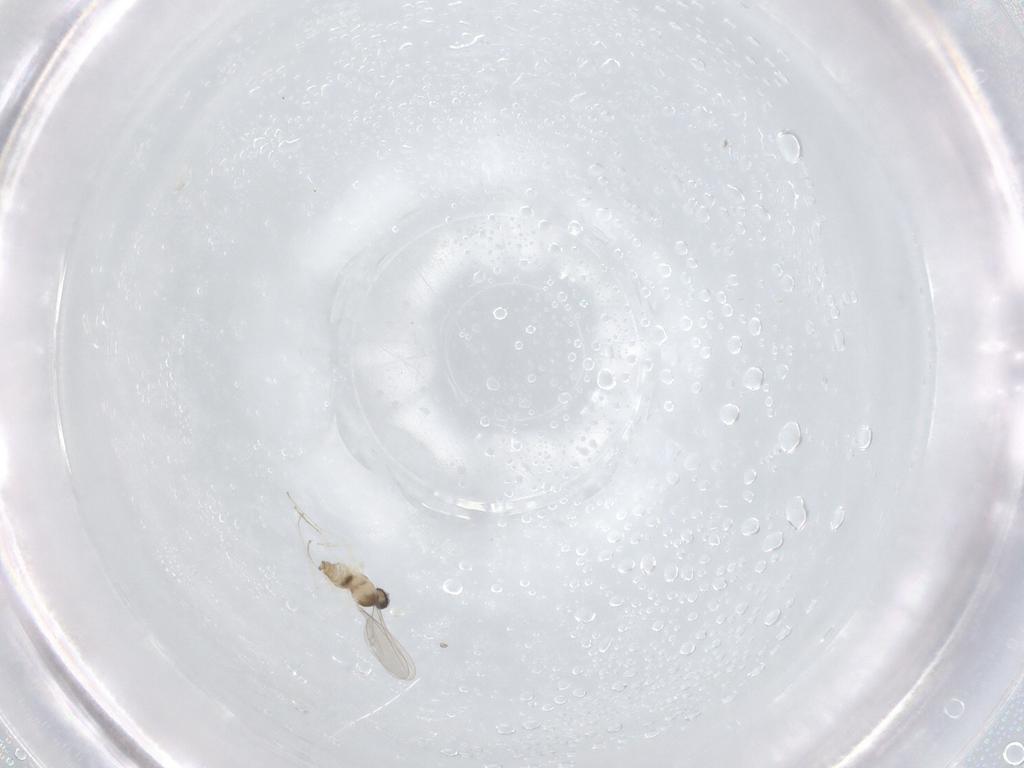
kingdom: Animalia
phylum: Arthropoda
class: Insecta
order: Diptera
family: Cecidomyiidae
